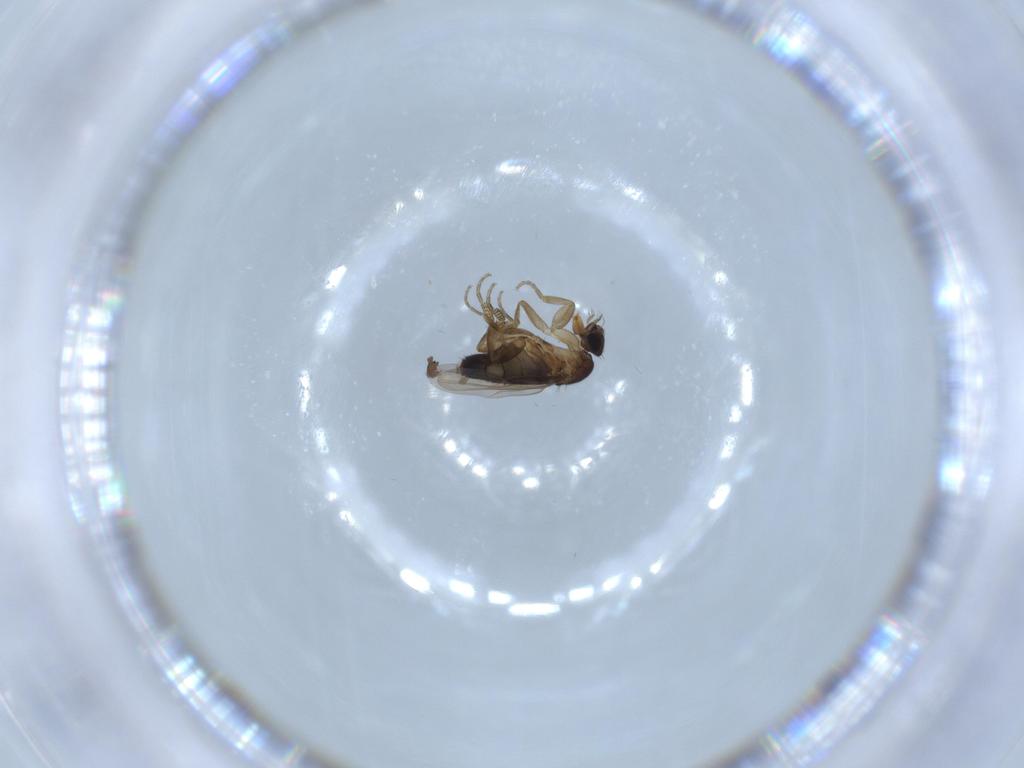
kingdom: Animalia
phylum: Arthropoda
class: Insecta
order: Diptera
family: Phoridae
